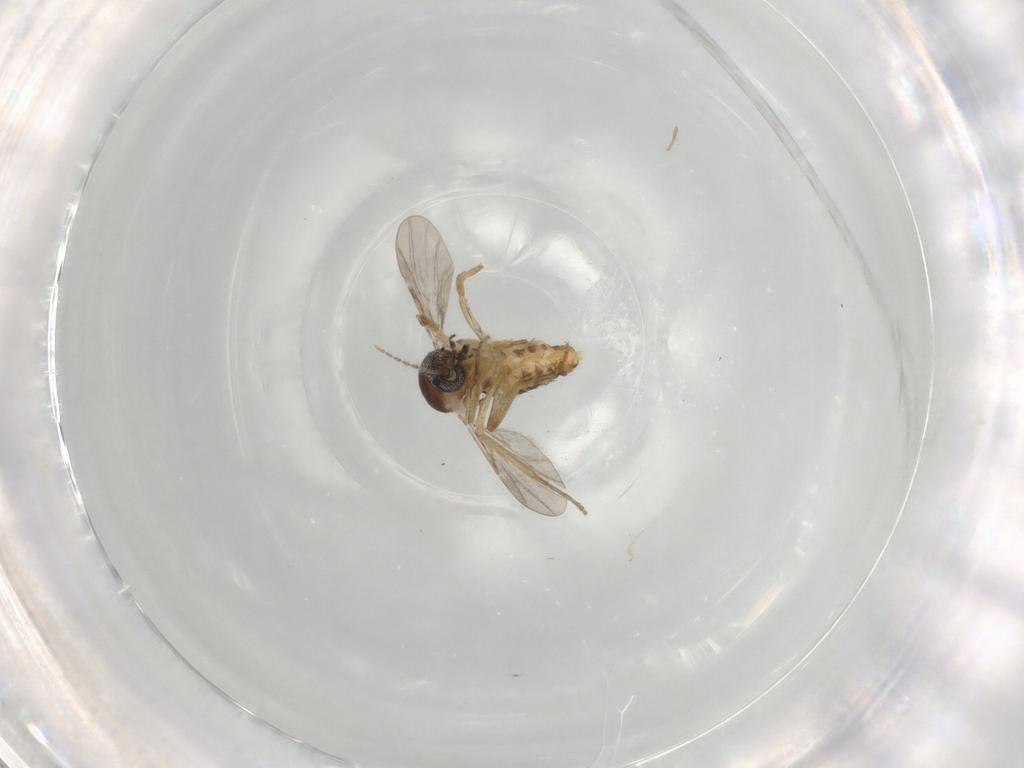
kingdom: Animalia
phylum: Arthropoda
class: Insecta
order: Diptera
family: Ceratopogonidae
